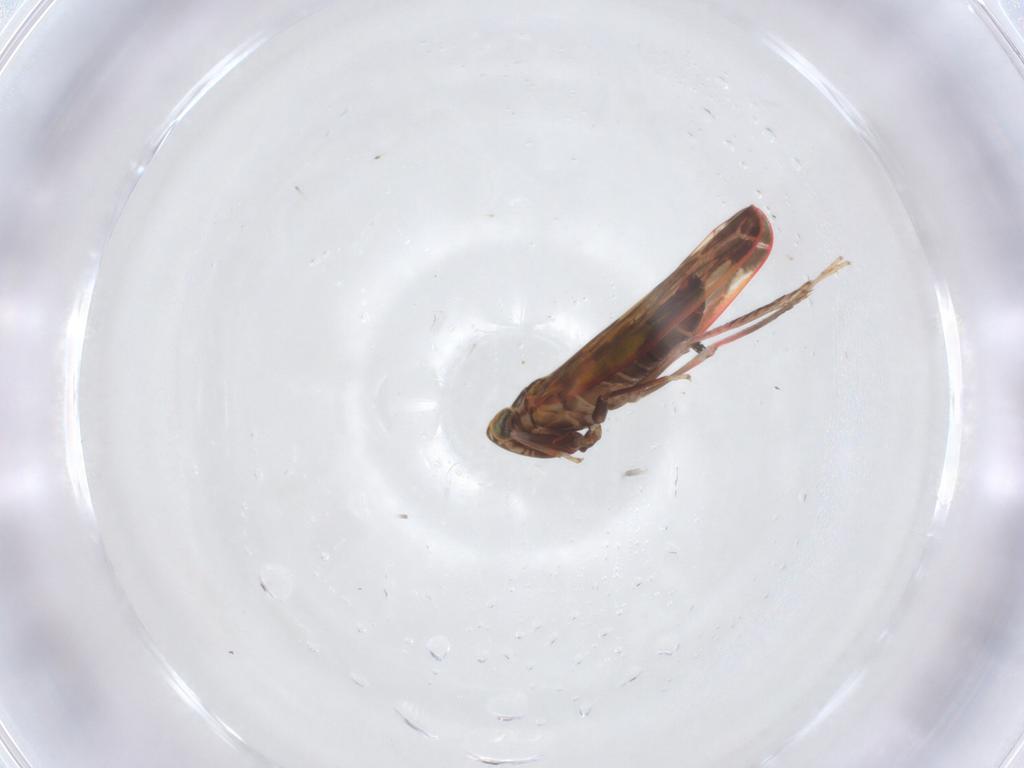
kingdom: Animalia
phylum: Arthropoda
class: Insecta
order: Hemiptera
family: Cicadellidae
